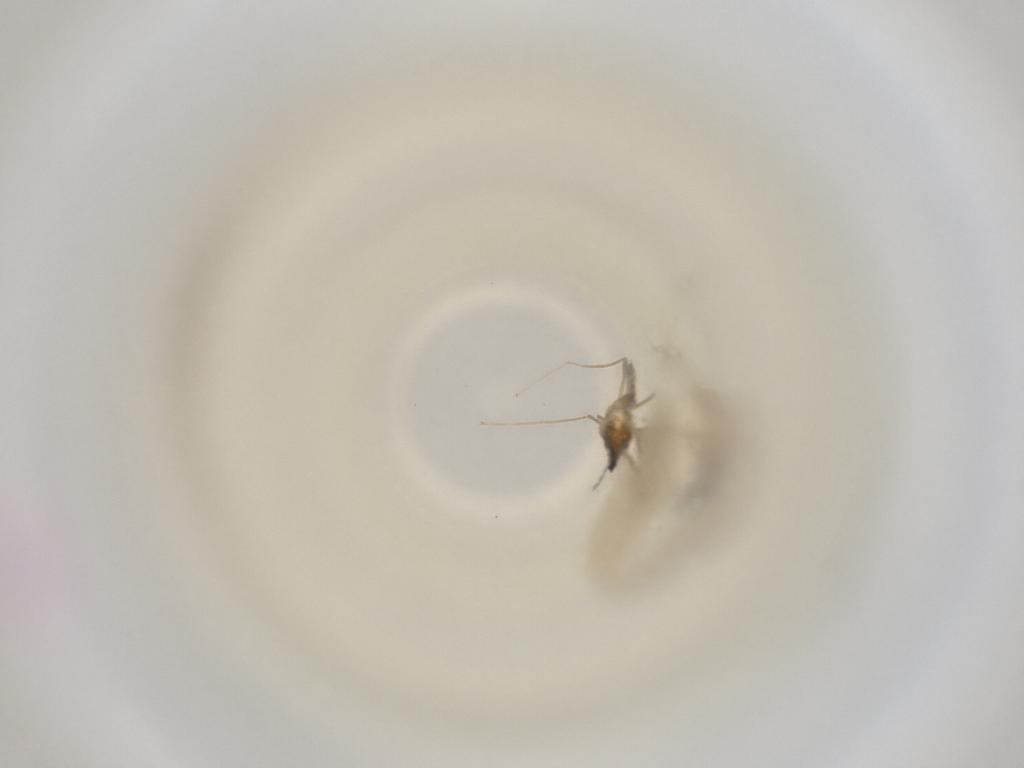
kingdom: Animalia
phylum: Arthropoda
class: Insecta
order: Diptera
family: Cecidomyiidae
